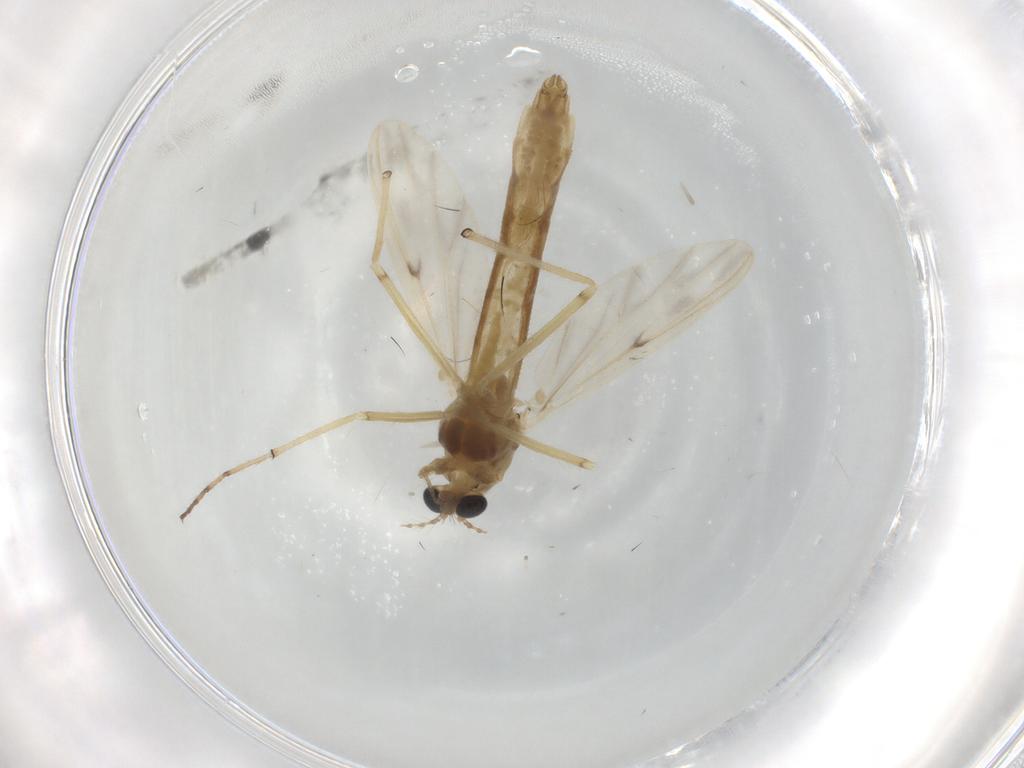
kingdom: Animalia
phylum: Arthropoda
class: Insecta
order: Diptera
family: Chironomidae
